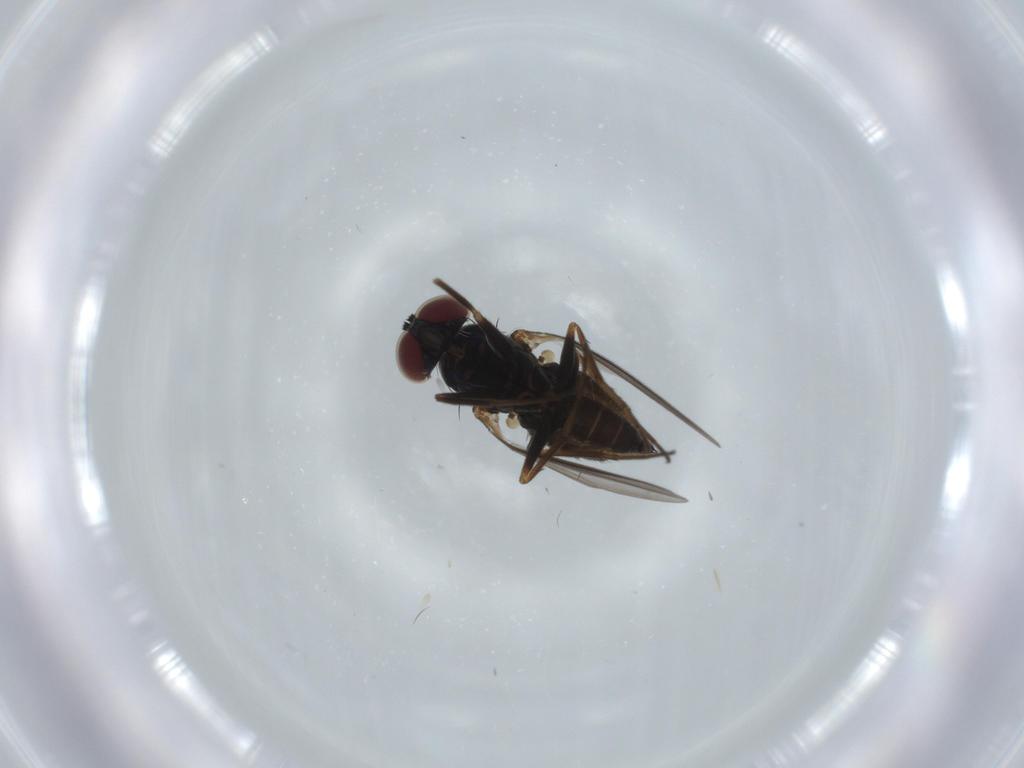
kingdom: Animalia
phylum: Arthropoda
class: Insecta
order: Diptera
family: Dolichopodidae
